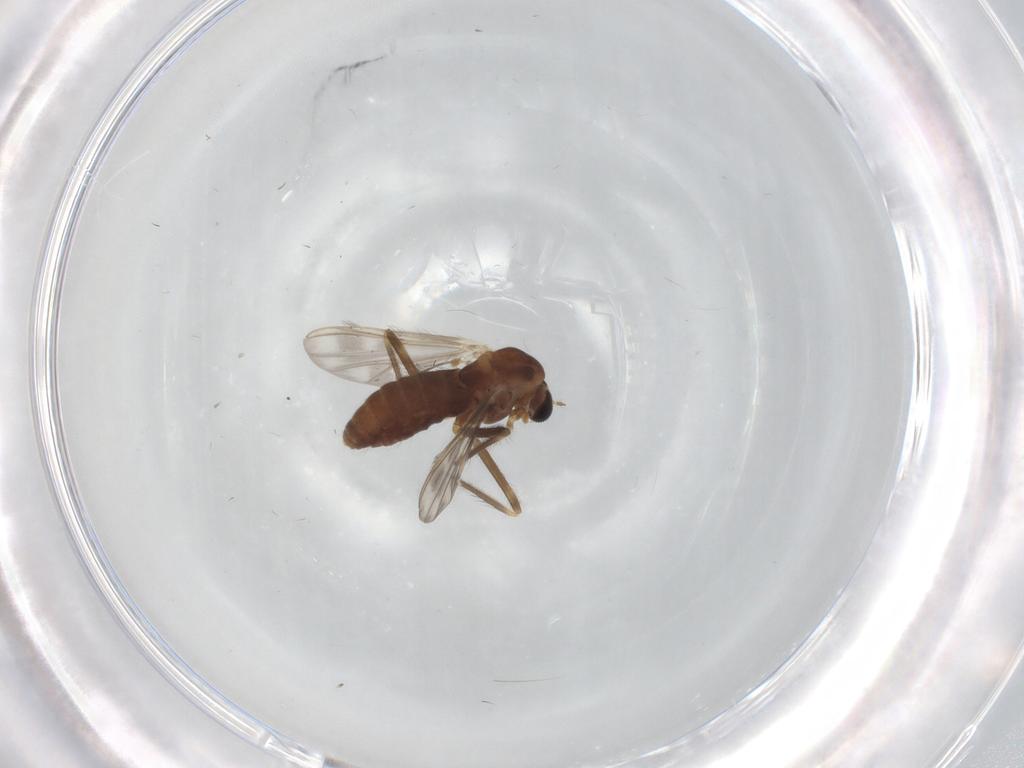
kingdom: Animalia
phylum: Arthropoda
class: Insecta
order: Diptera
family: Chironomidae
